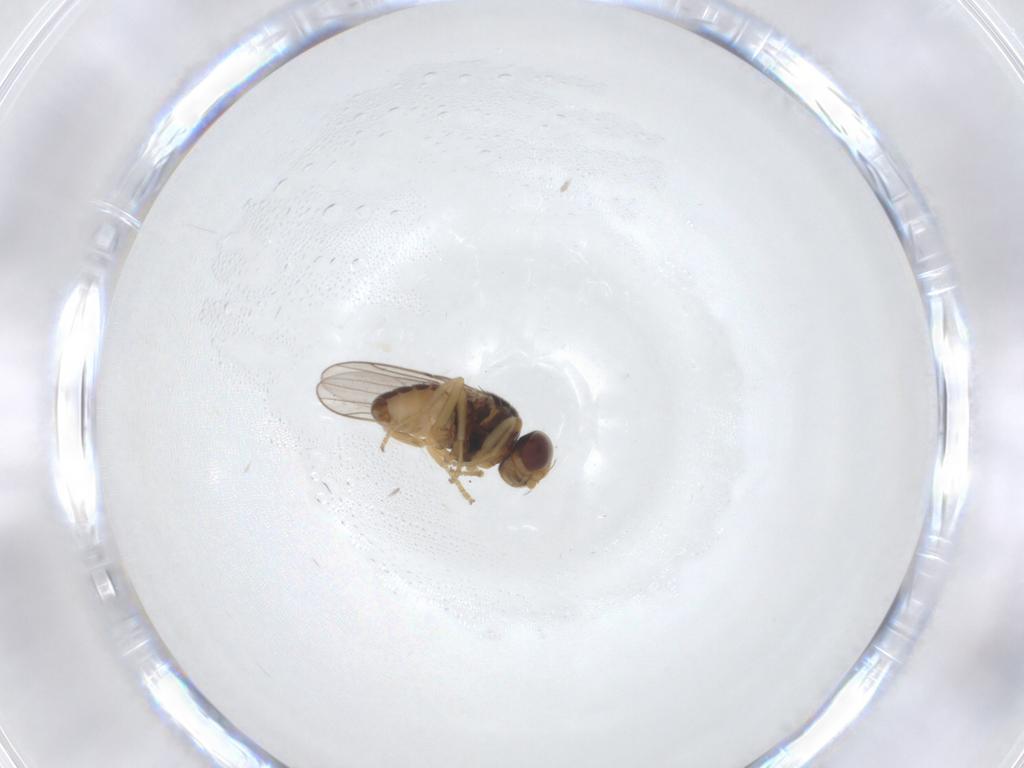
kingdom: Animalia
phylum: Arthropoda
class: Insecta
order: Diptera
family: Chloropidae
